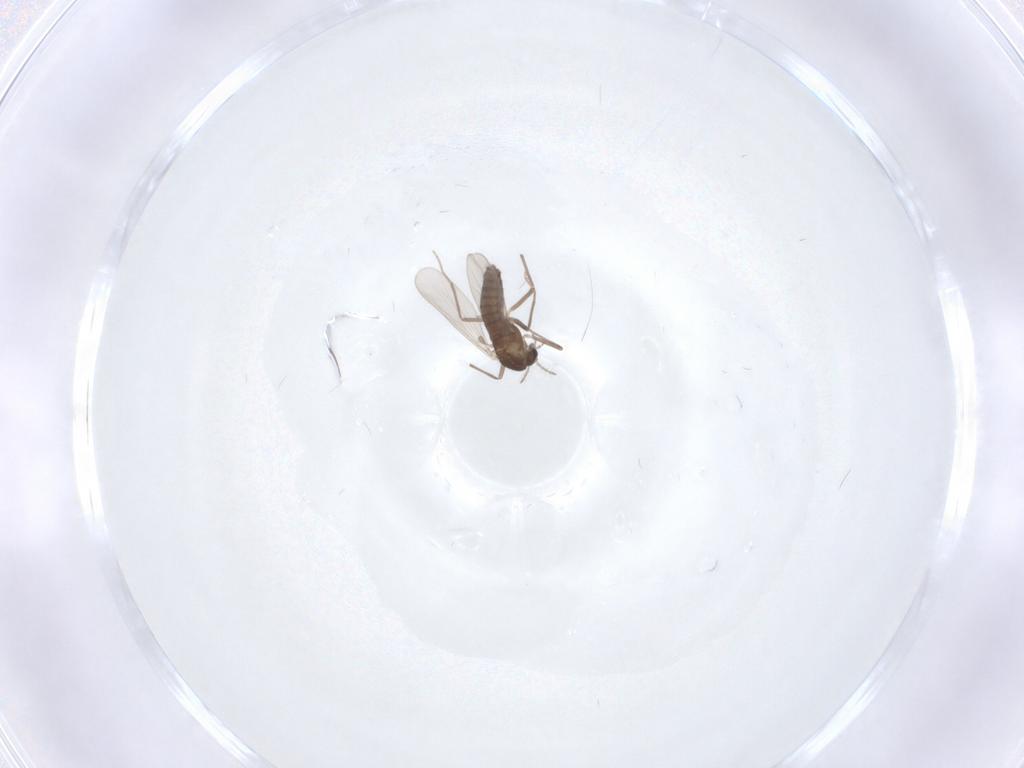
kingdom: Animalia
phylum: Arthropoda
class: Insecta
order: Diptera
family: Chironomidae
